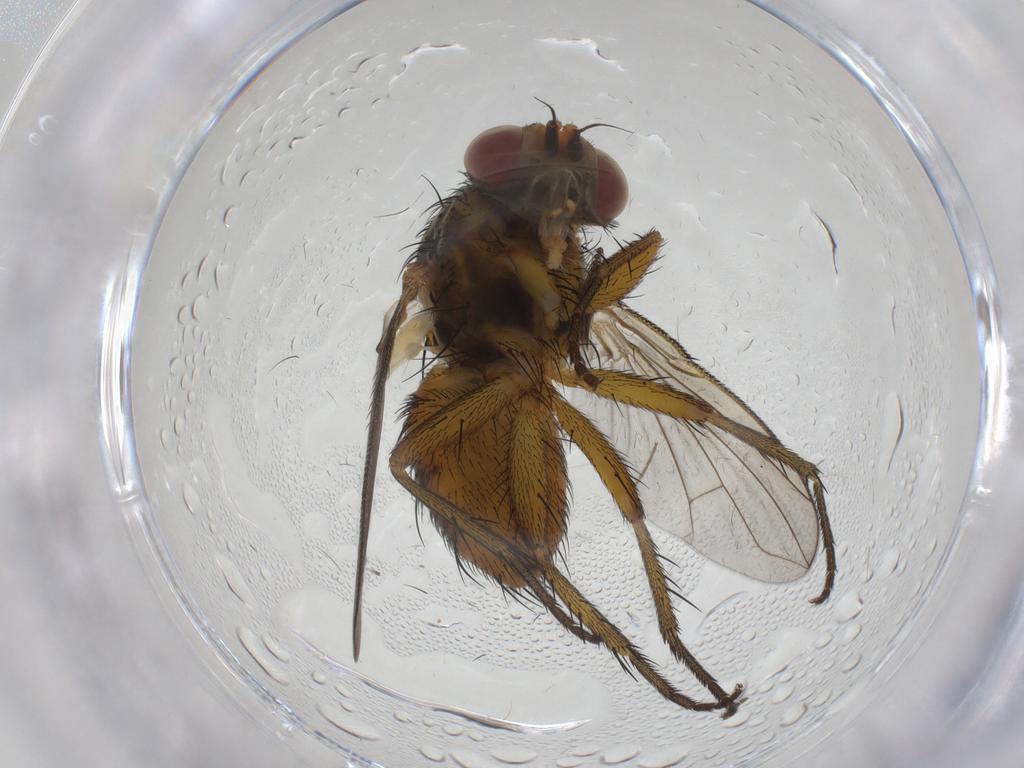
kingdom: Animalia
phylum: Arthropoda
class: Insecta
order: Diptera
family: Tachinidae
